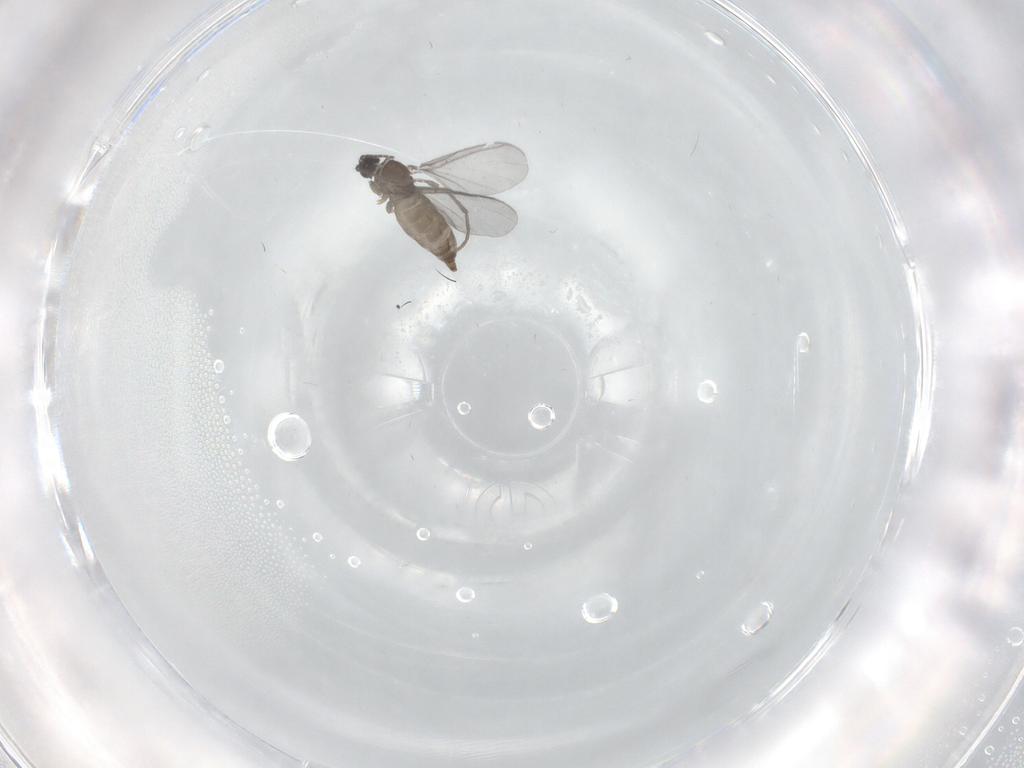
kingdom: Animalia
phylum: Arthropoda
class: Insecta
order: Diptera
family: Sciaridae
